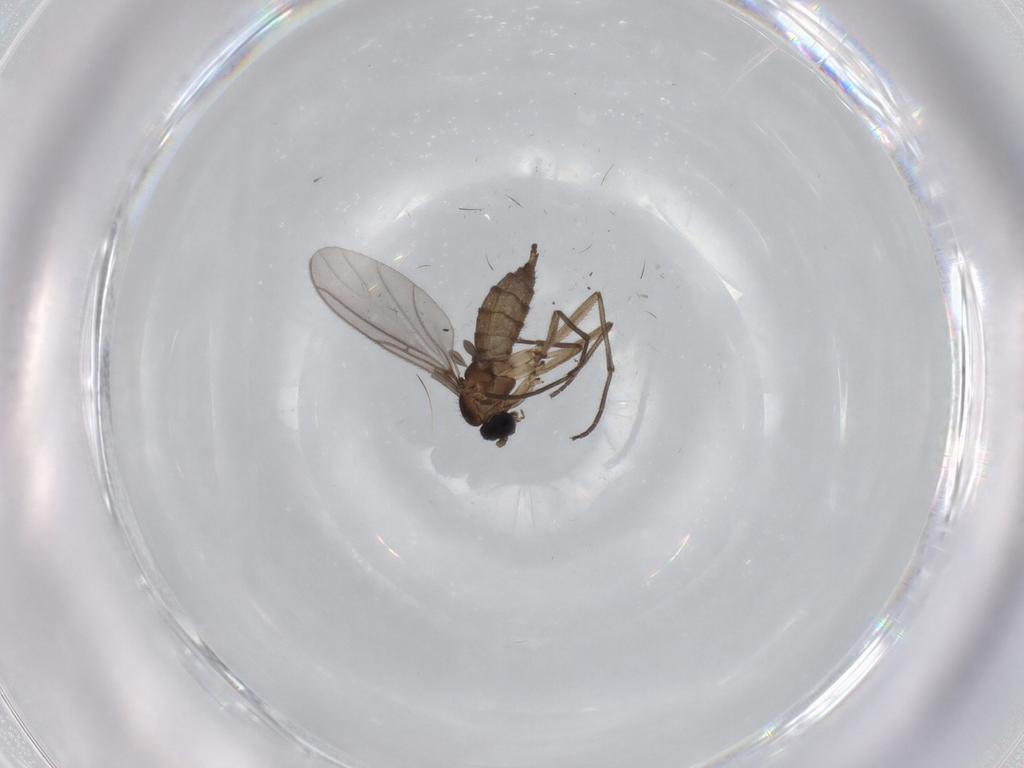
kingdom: Animalia
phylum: Arthropoda
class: Insecta
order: Diptera
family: Sciaridae
